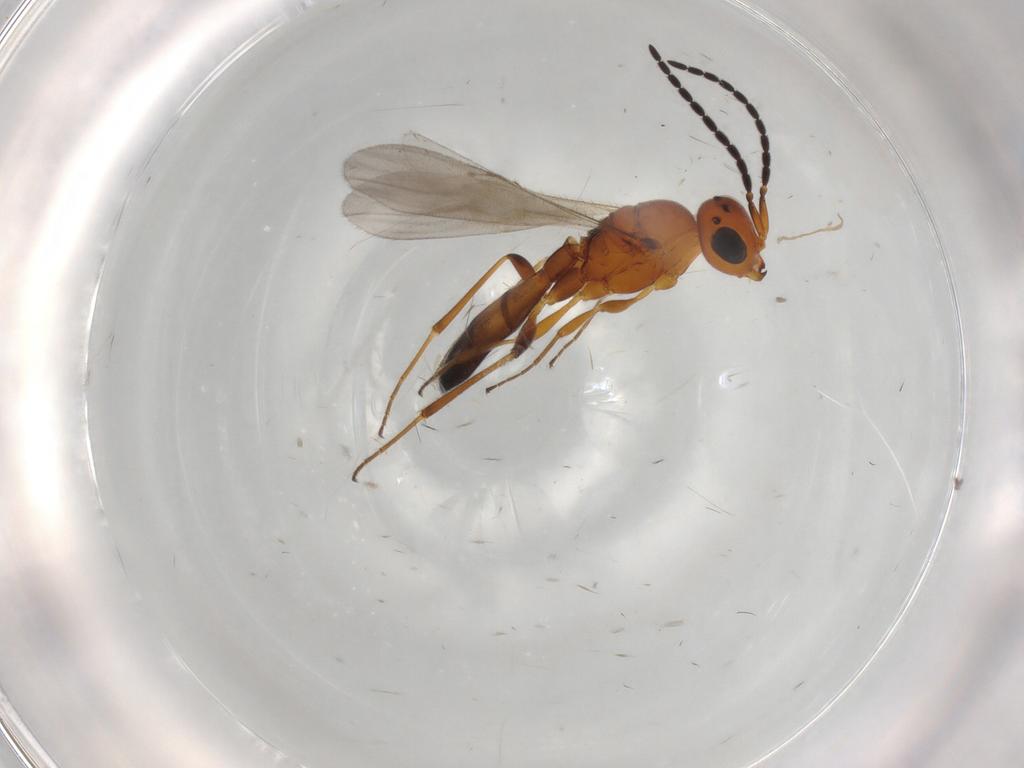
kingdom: Animalia
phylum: Arthropoda
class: Insecta
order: Hymenoptera
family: Scelionidae
